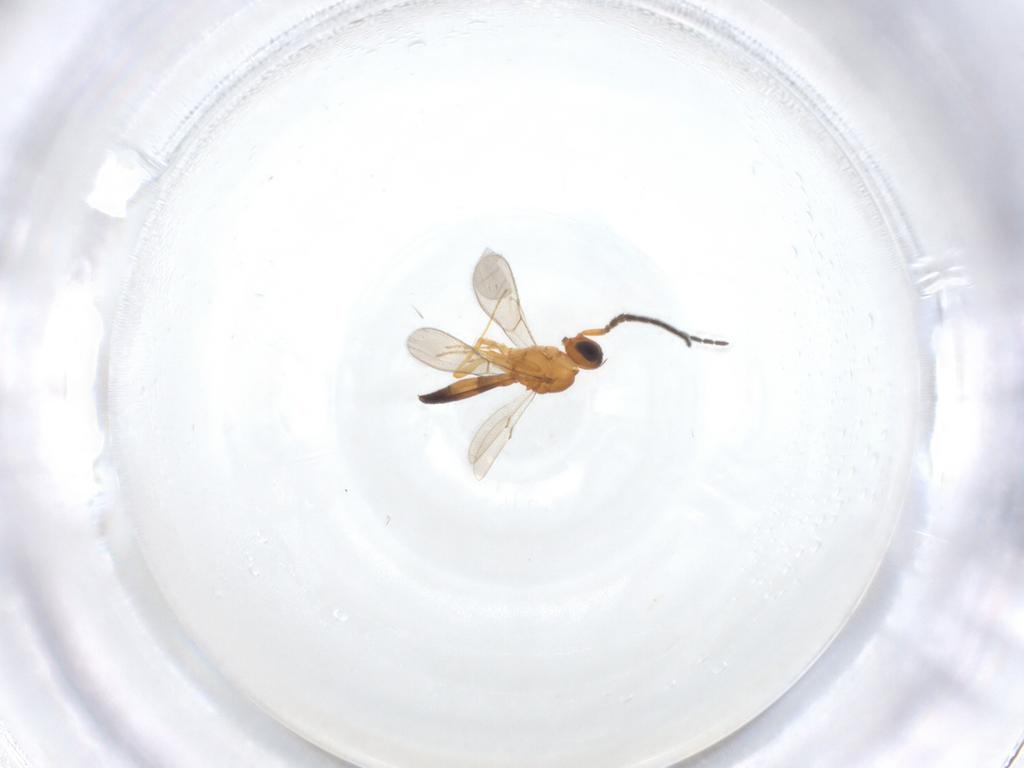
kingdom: Animalia
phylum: Arthropoda
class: Insecta
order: Hymenoptera
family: Scelionidae
